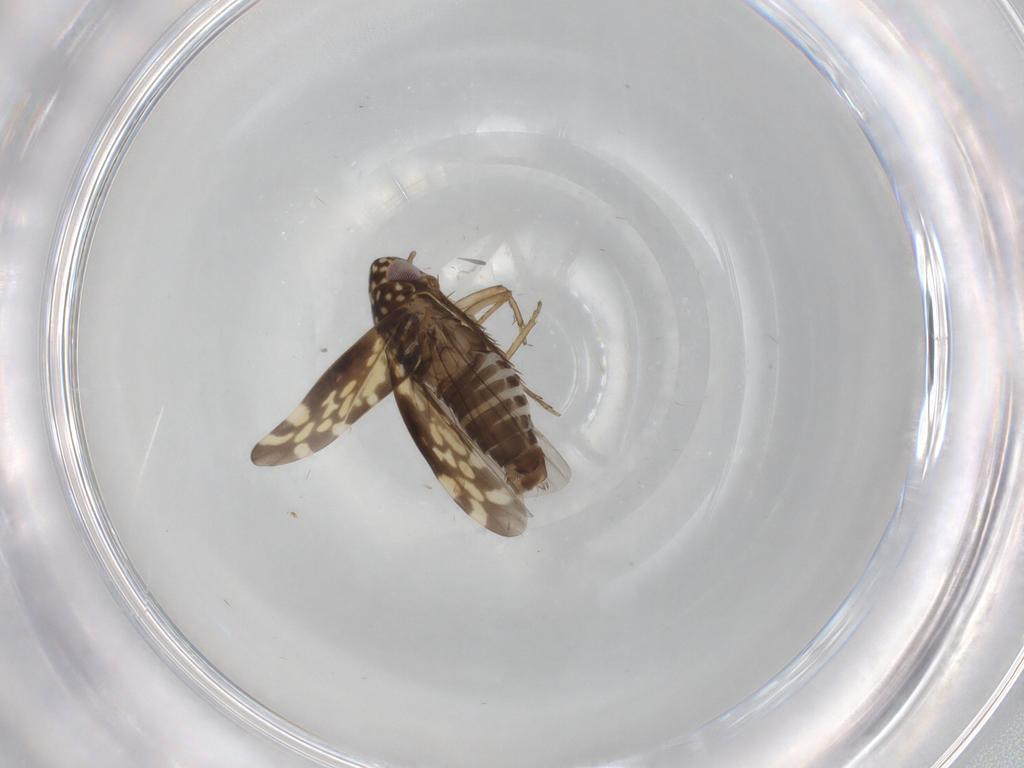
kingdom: Animalia
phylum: Arthropoda
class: Insecta
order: Hemiptera
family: Cicadellidae
